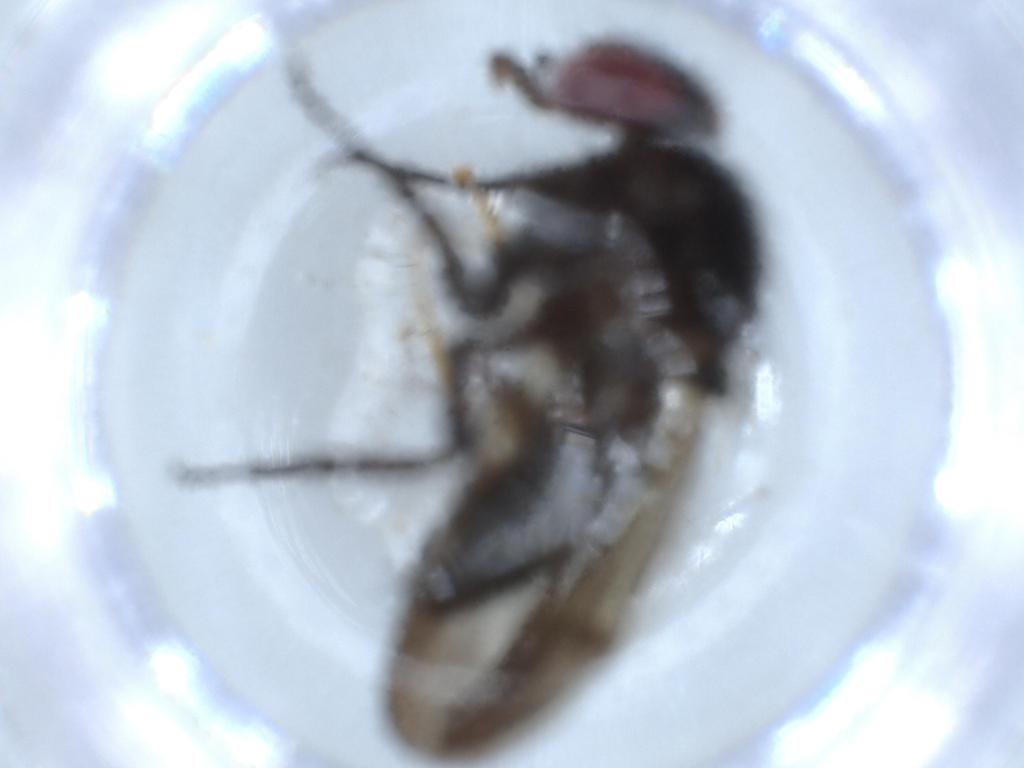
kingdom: Animalia
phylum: Arthropoda
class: Insecta
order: Diptera
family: Fannia
